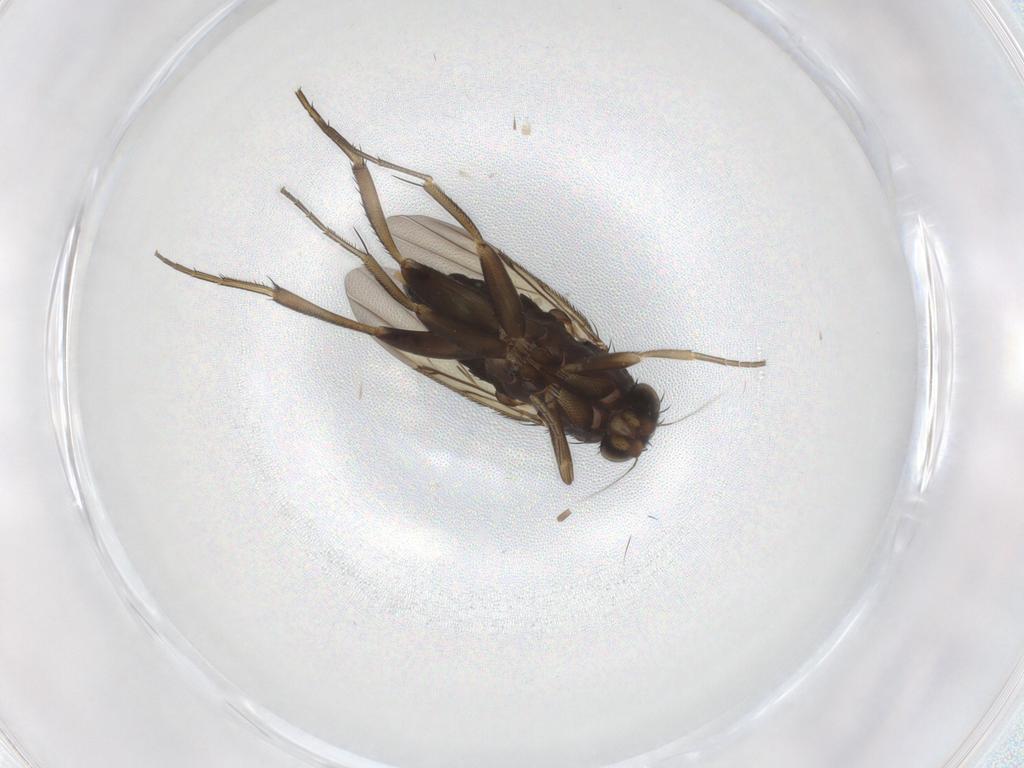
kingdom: Animalia
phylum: Arthropoda
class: Insecta
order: Diptera
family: Phoridae
